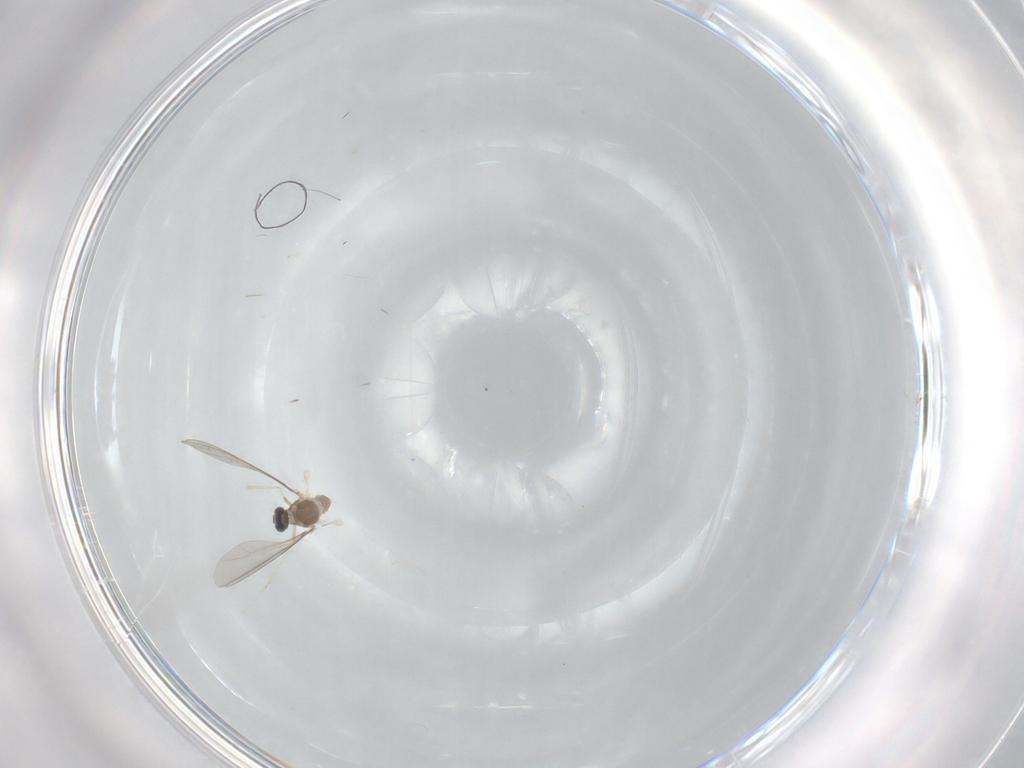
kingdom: Animalia
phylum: Arthropoda
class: Insecta
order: Diptera
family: Cecidomyiidae
